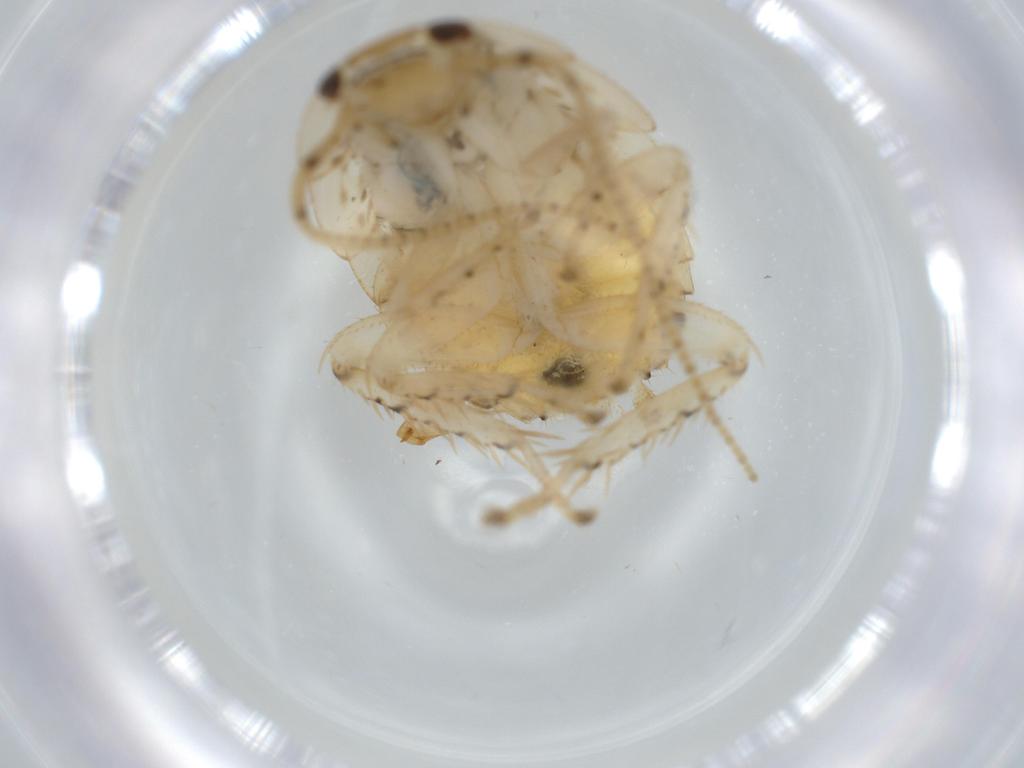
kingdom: Animalia
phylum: Arthropoda
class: Insecta
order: Blattodea
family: Ectobiidae
